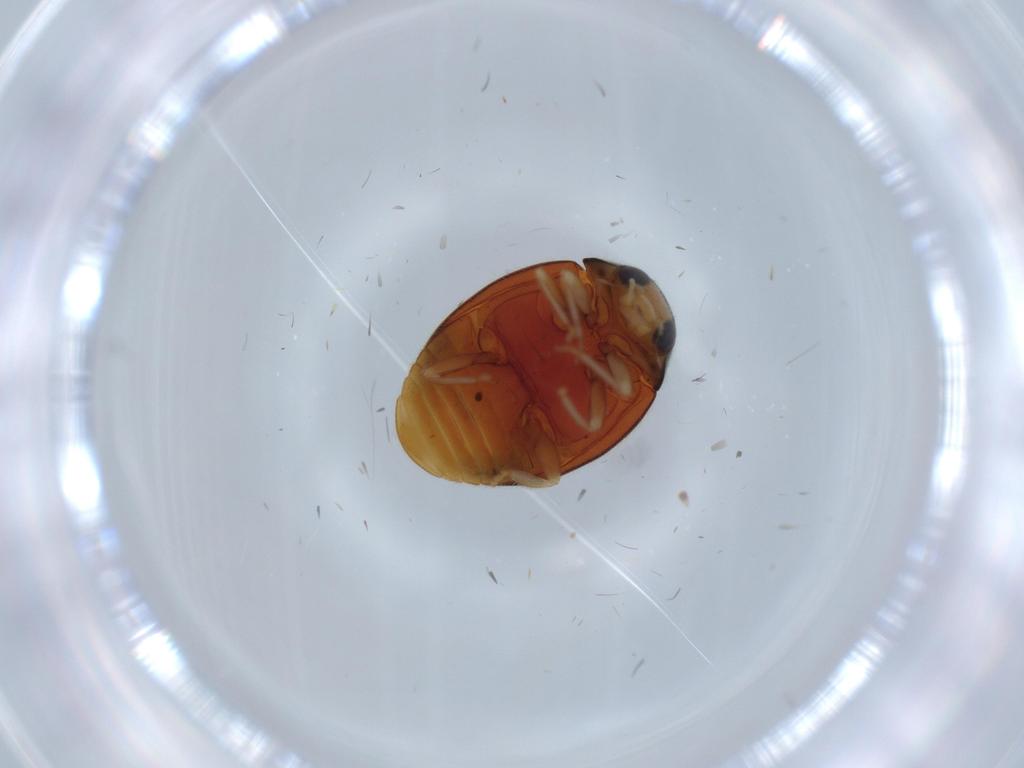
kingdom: Animalia
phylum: Arthropoda
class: Insecta
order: Coleoptera
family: Coccinellidae
